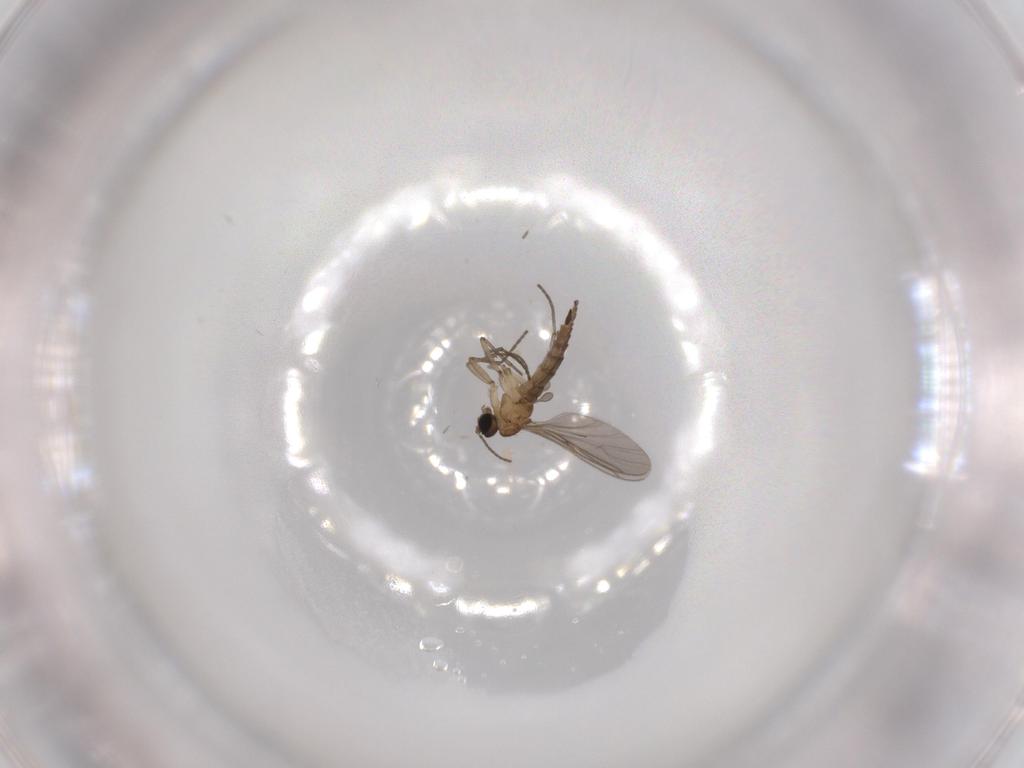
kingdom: Animalia
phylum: Arthropoda
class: Insecta
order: Diptera
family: Sciaridae
